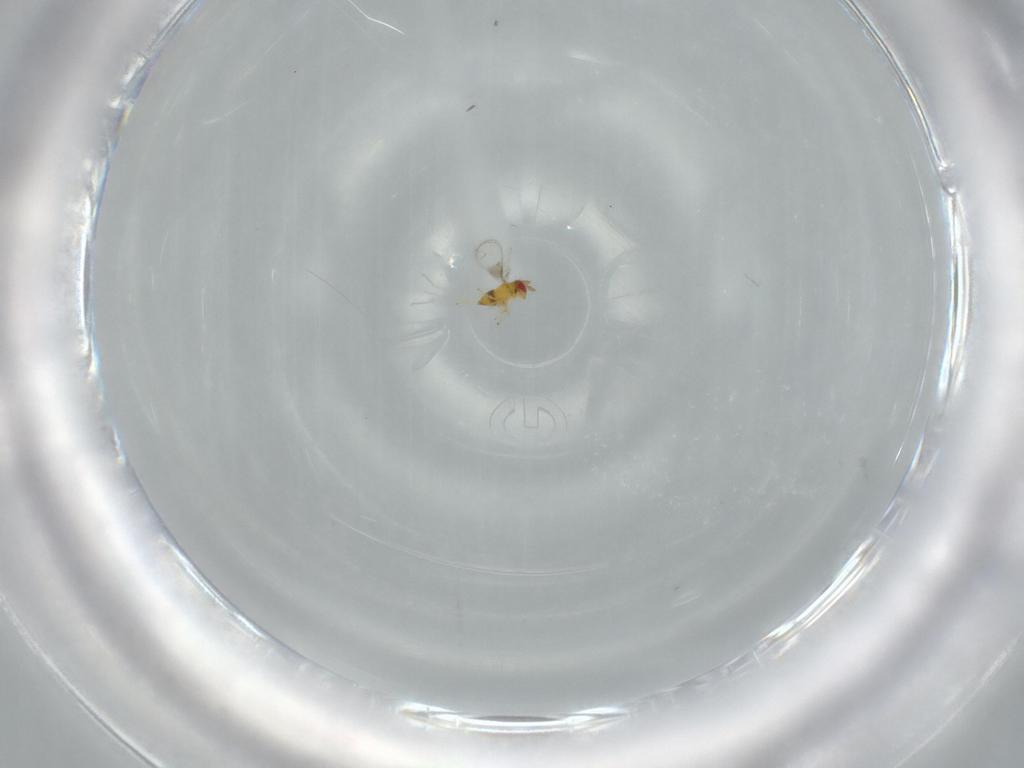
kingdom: Animalia
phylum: Arthropoda
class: Insecta
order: Hymenoptera
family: Trichogrammatidae
